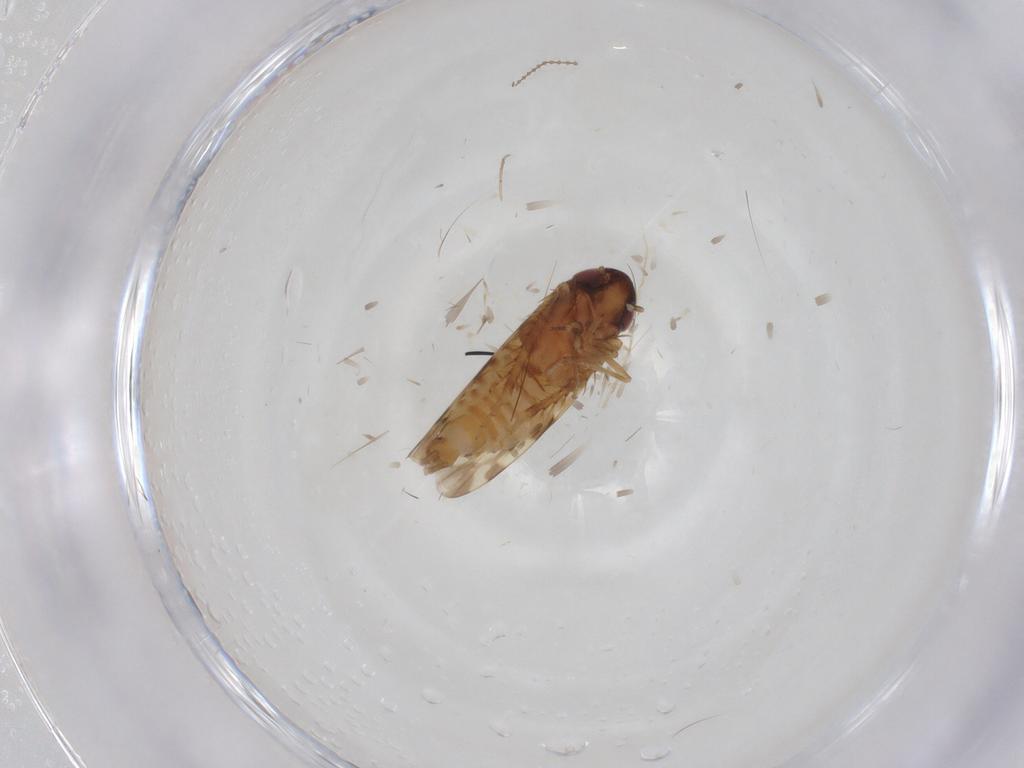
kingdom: Animalia
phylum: Arthropoda
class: Insecta
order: Hemiptera
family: Cicadellidae
